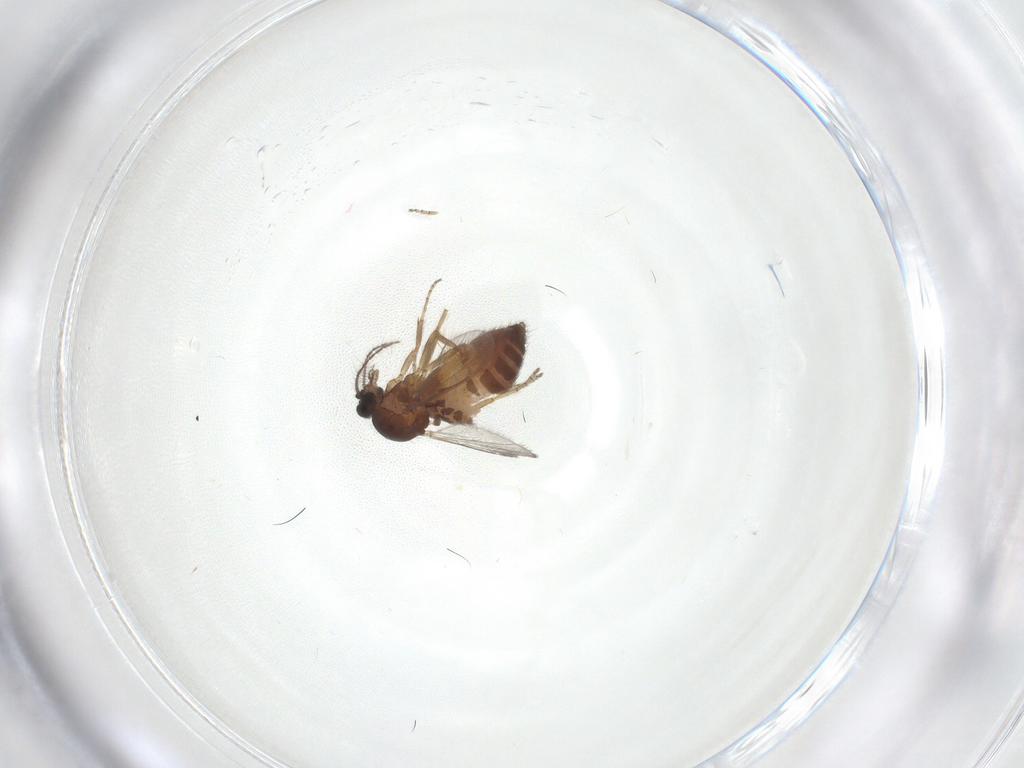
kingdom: Animalia
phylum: Arthropoda
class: Insecta
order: Diptera
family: Ceratopogonidae
